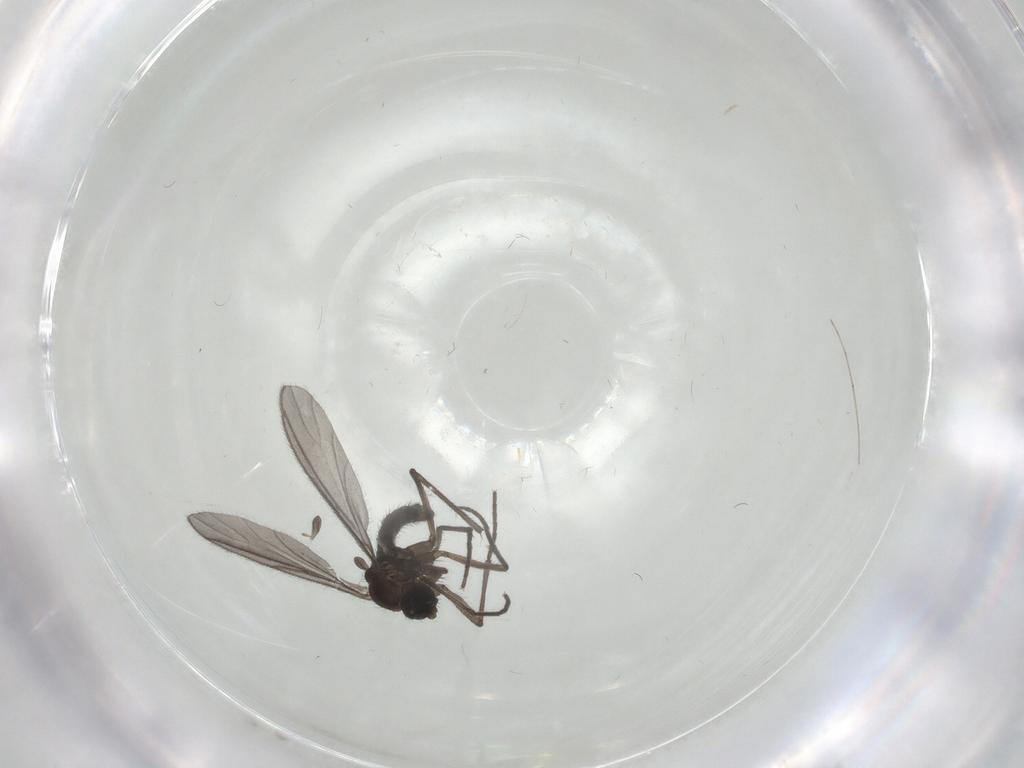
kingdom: Animalia
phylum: Arthropoda
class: Insecta
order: Diptera
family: Sciaridae
